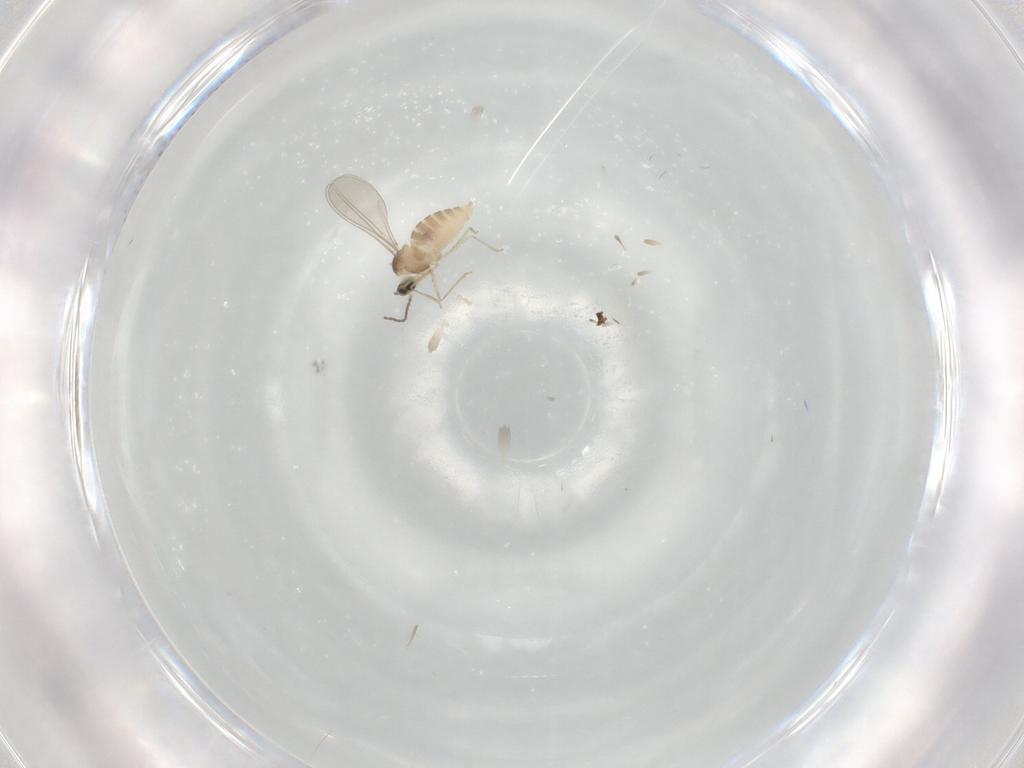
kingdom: Animalia
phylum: Arthropoda
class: Insecta
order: Diptera
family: Cecidomyiidae
